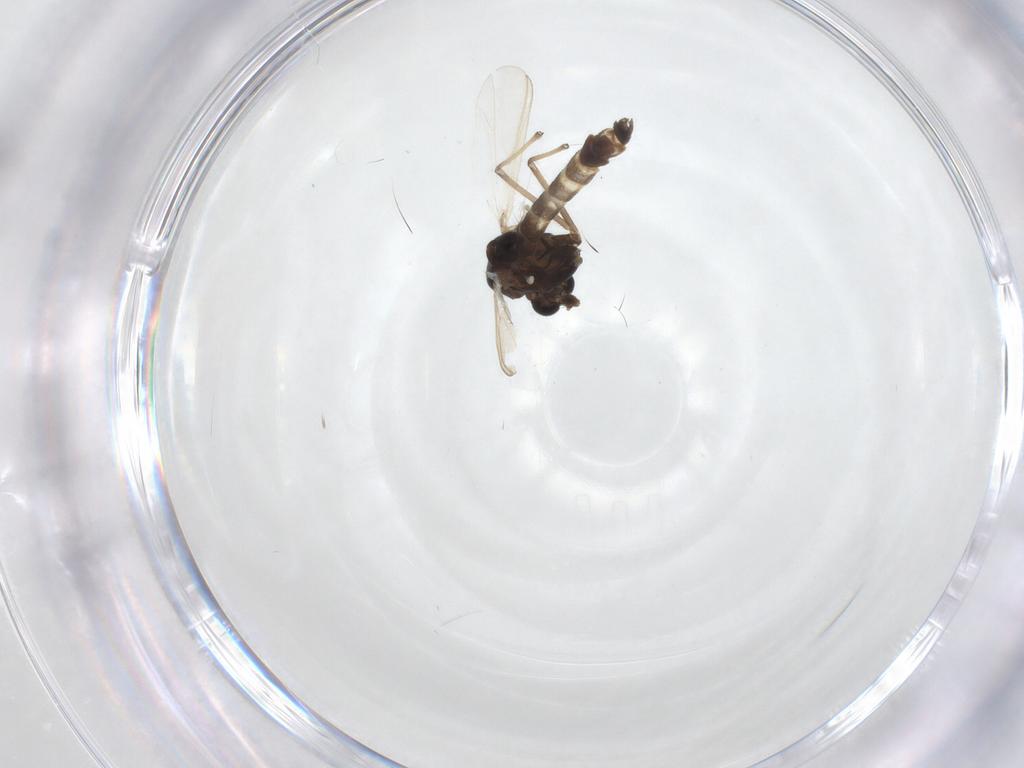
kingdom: Animalia
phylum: Arthropoda
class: Insecta
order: Diptera
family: Chironomidae
